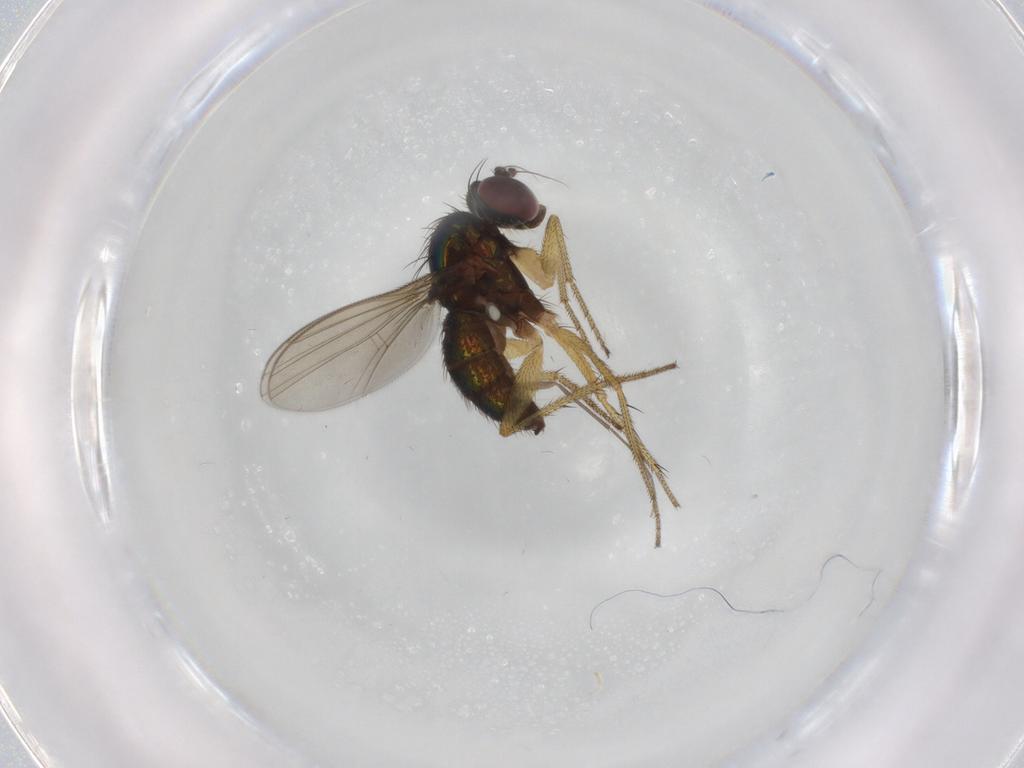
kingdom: Animalia
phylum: Arthropoda
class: Insecta
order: Diptera
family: Dolichopodidae
